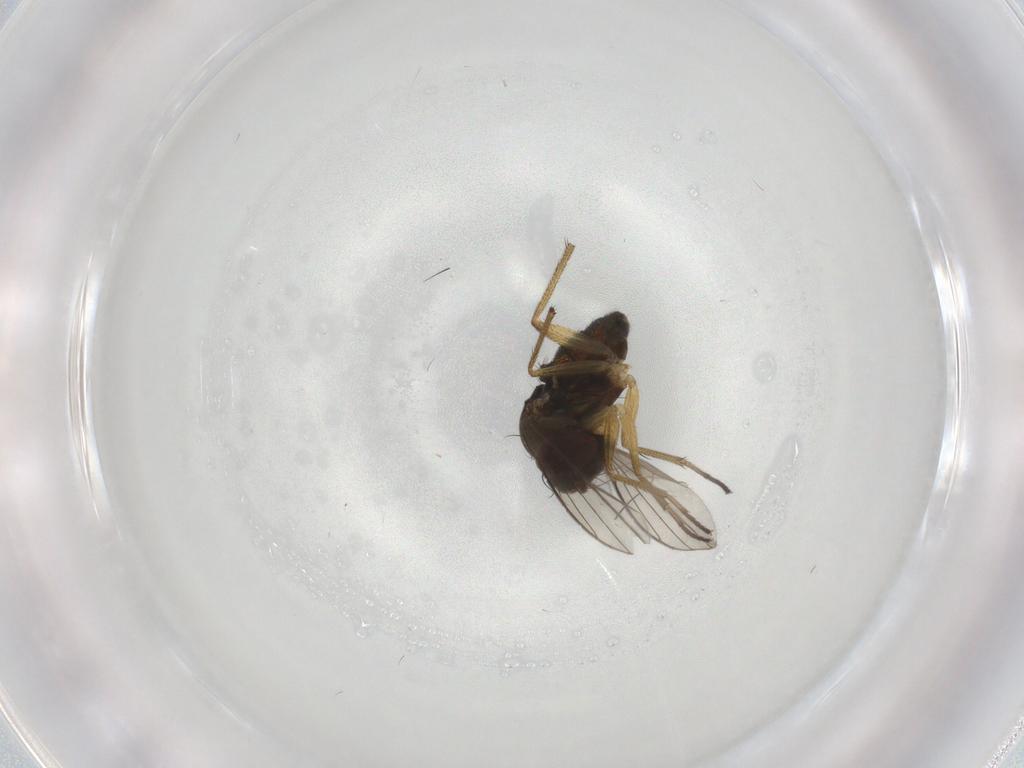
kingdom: Animalia
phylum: Arthropoda
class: Insecta
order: Diptera
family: Dolichopodidae
